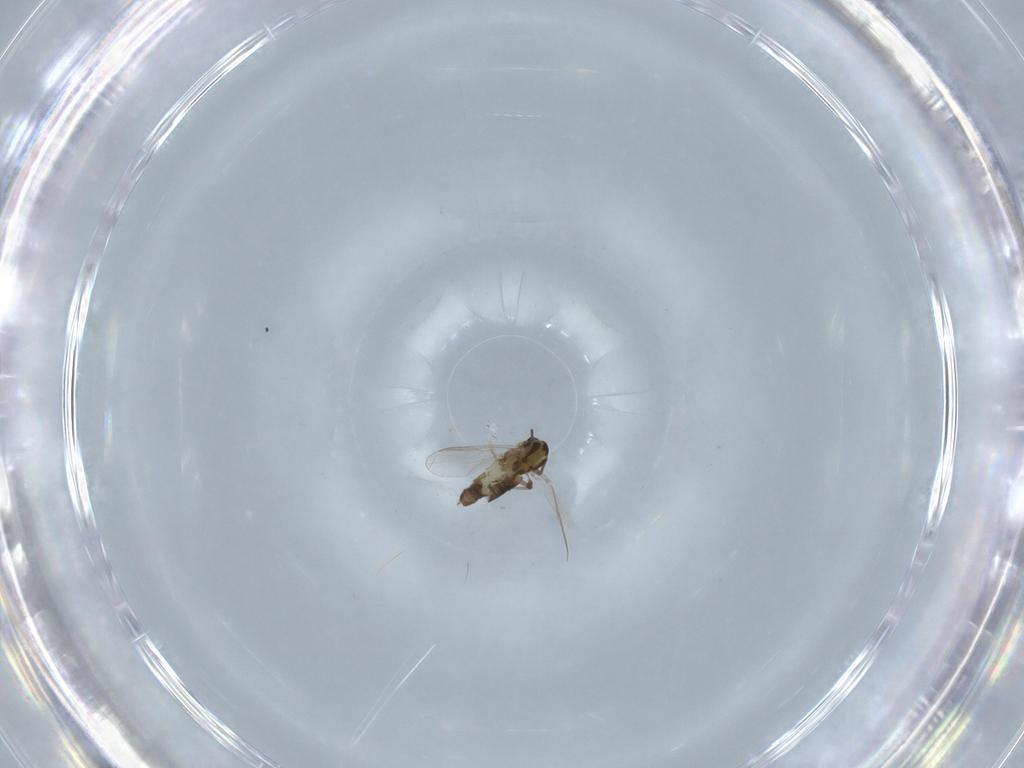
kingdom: Animalia
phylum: Arthropoda
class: Insecta
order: Diptera
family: Chironomidae
